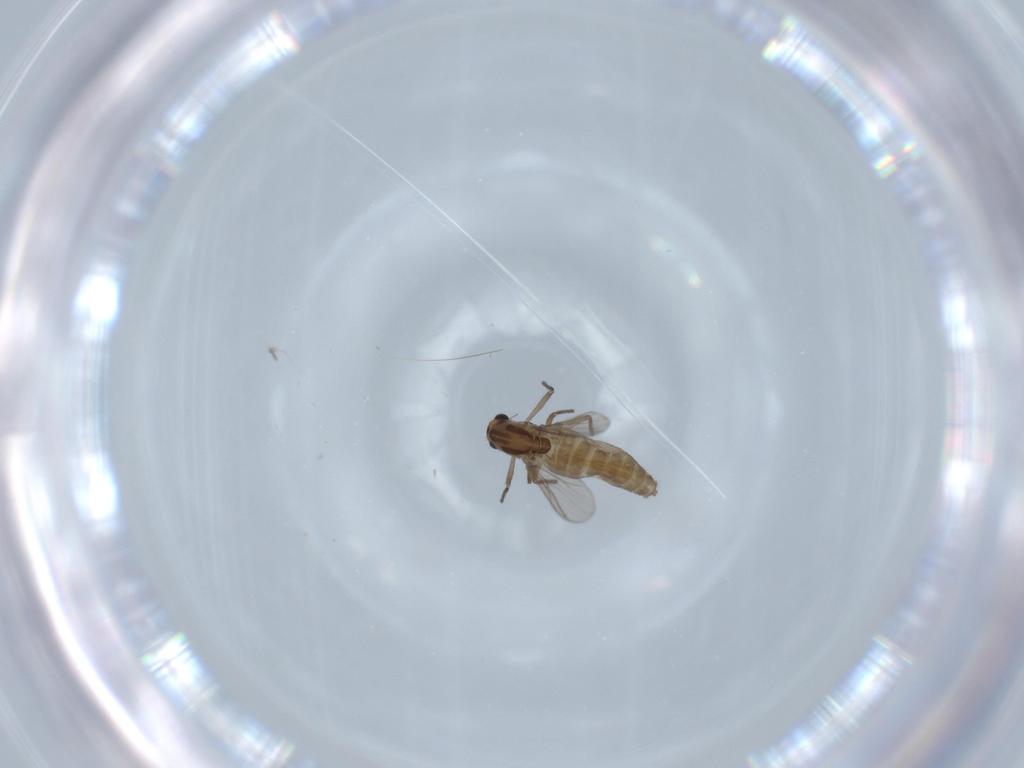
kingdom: Animalia
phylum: Arthropoda
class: Insecta
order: Diptera
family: Chironomidae
